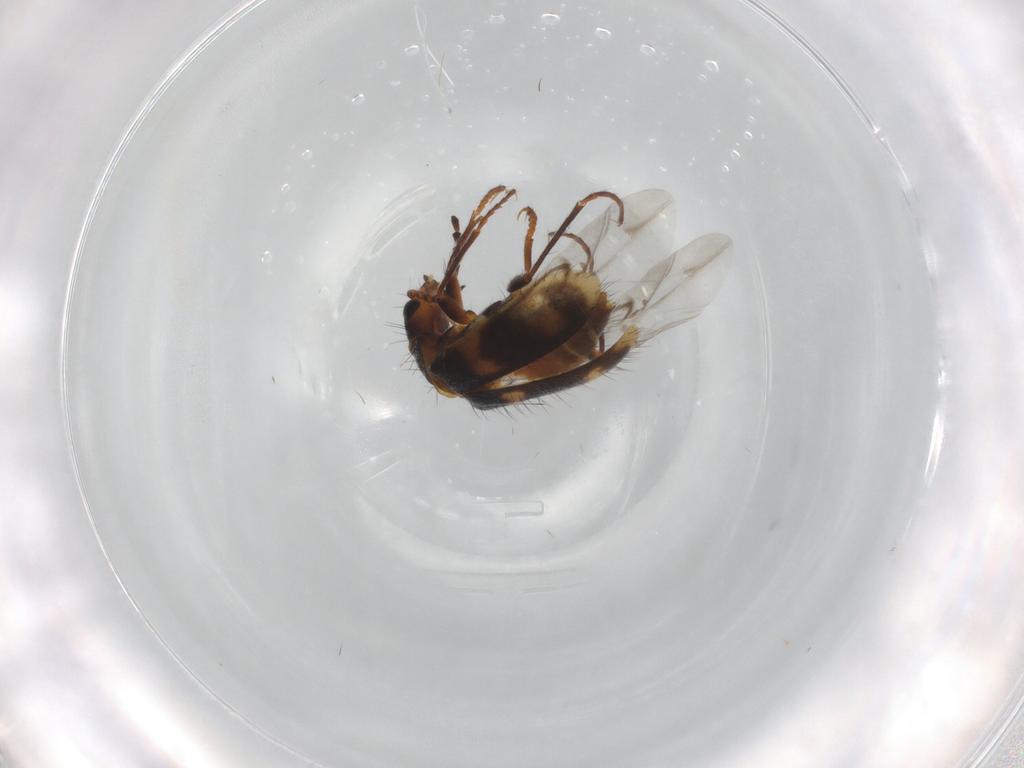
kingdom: Animalia
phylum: Arthropoda
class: Insecta
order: Coleoptera
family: Melyridae
